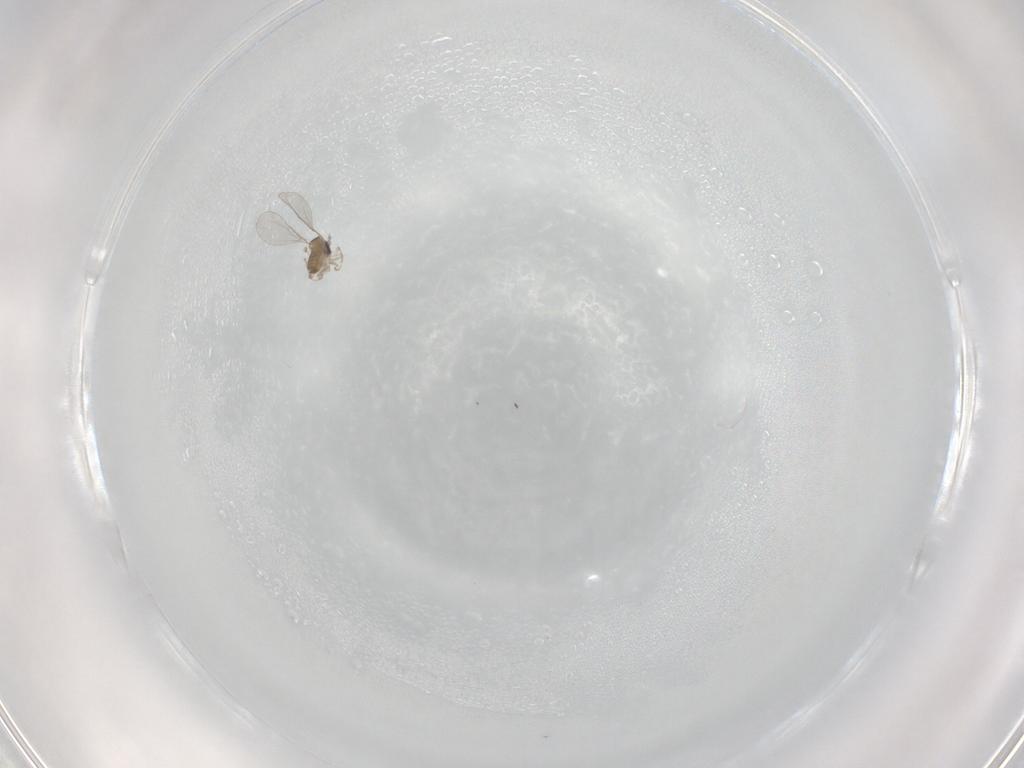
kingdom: Animalia
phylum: Arthropoda
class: Insecta
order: Diptera
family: Cecidomyiidae
